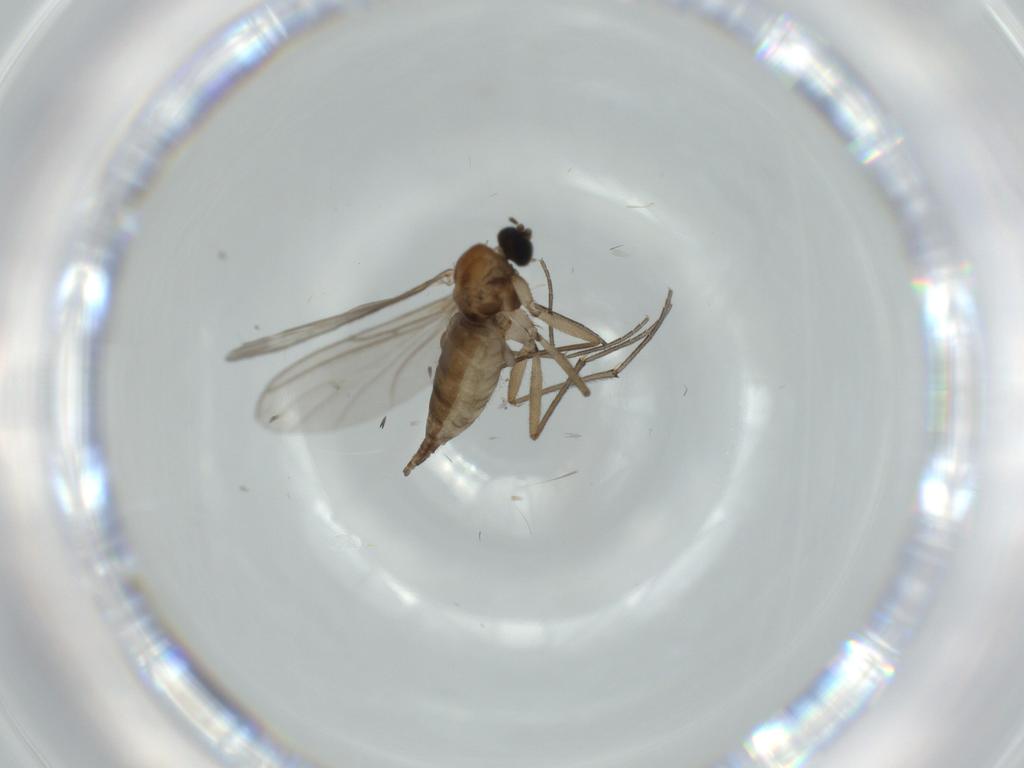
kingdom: Animalia
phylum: Arthropoda
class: Insecta
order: Diptera
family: Sciaridae
